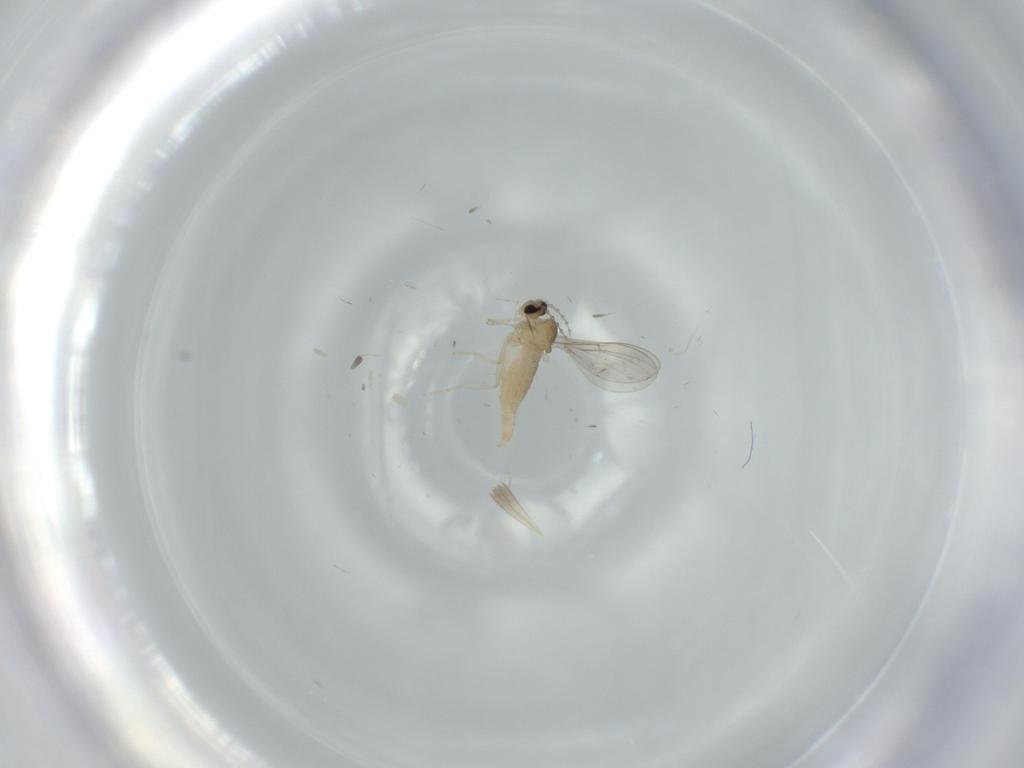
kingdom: Animalia
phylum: Arthropoda
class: Insecta
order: Diptera
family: Cecidomyiidae
